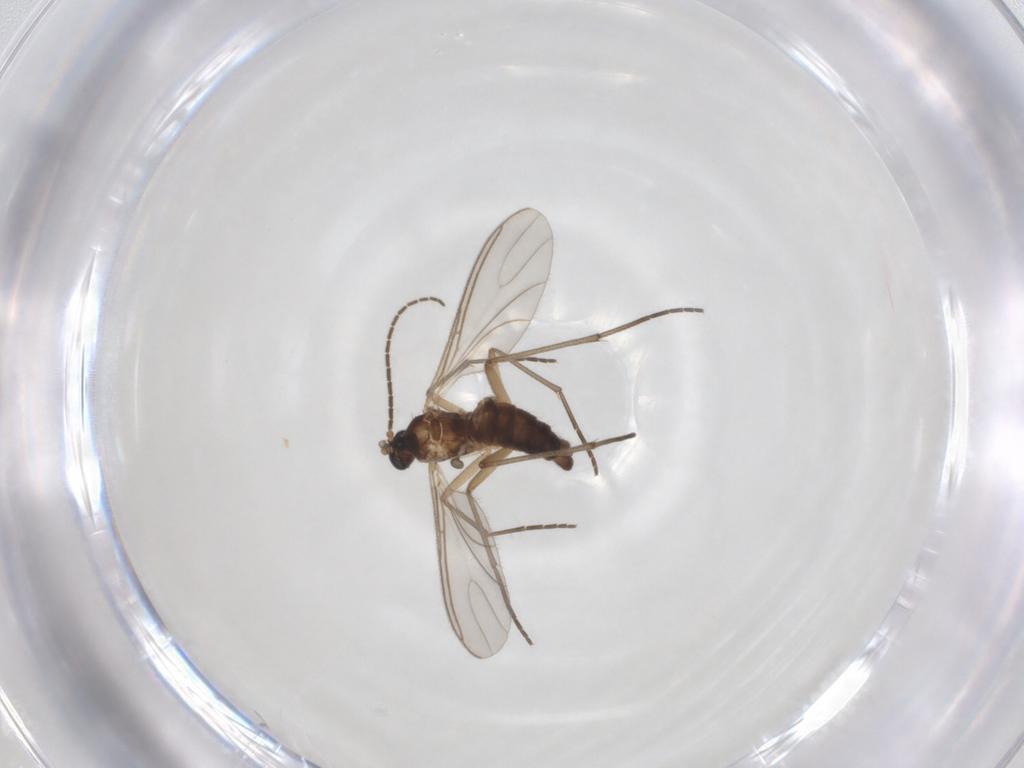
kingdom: Animalia
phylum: Arthropoda
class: Insecta
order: Diptera
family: Sciaridae
